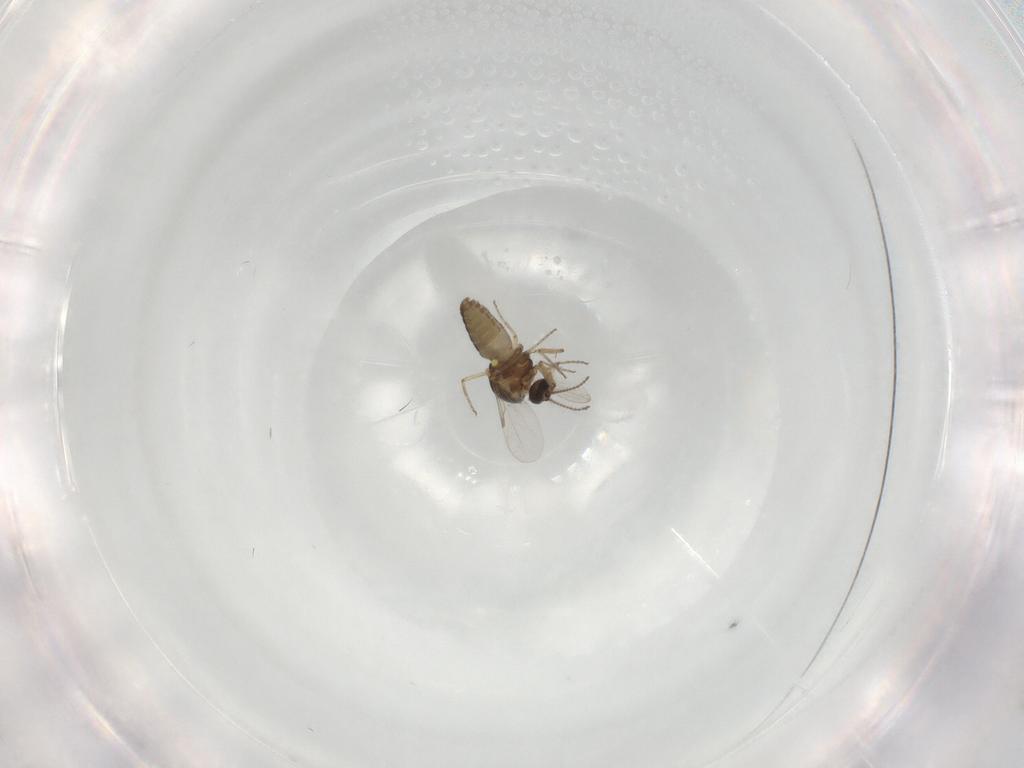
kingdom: Animalia
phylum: Arthropoda
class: Insecta
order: Diptera
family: Ceratopogonidae
